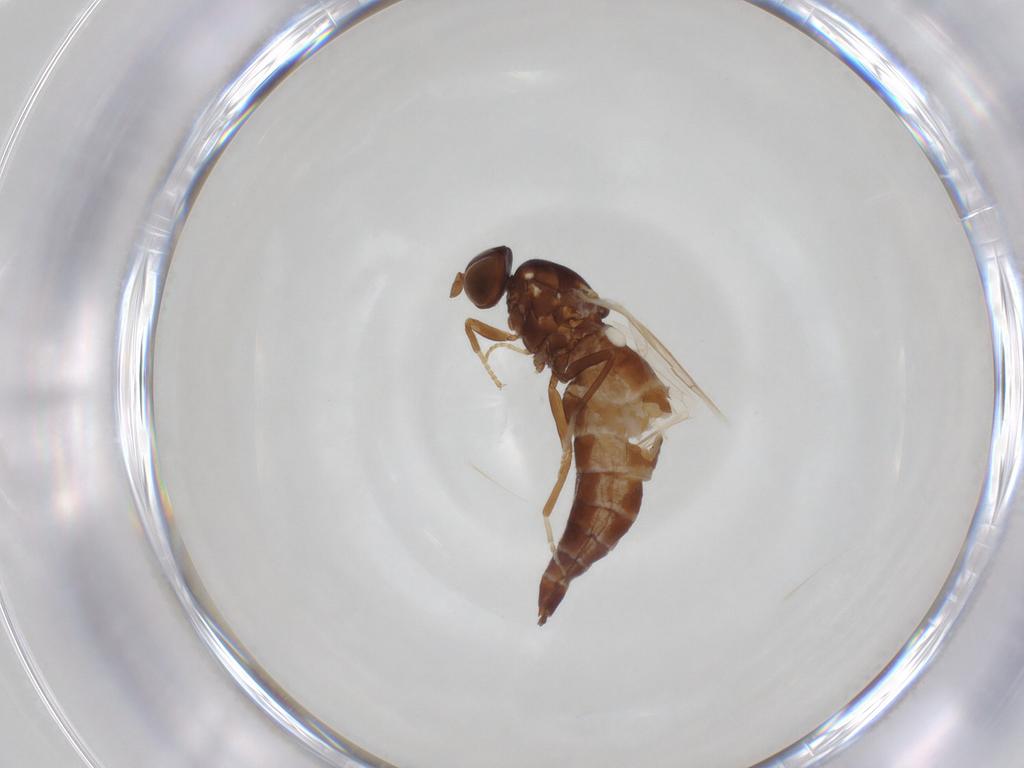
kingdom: Animalia
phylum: Arthropoda
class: Insecta
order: Diptera
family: Scenopinidae
